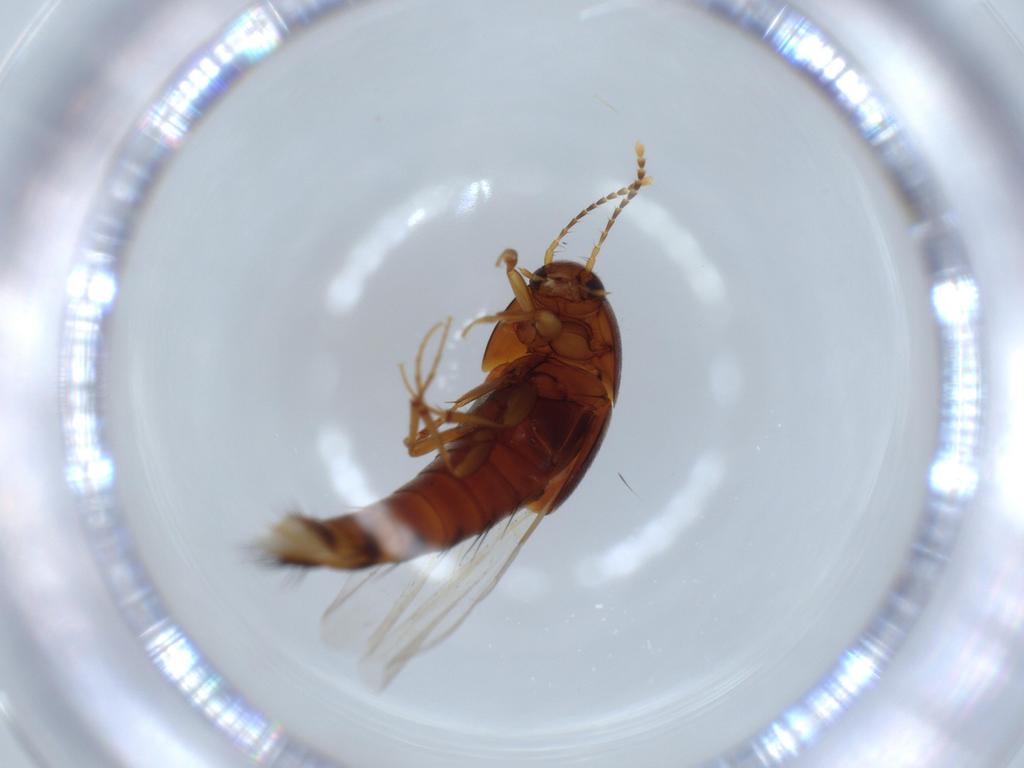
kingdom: Animalia
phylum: Arthropoda
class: Insecta
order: Coleoptera
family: Staphylinidae
